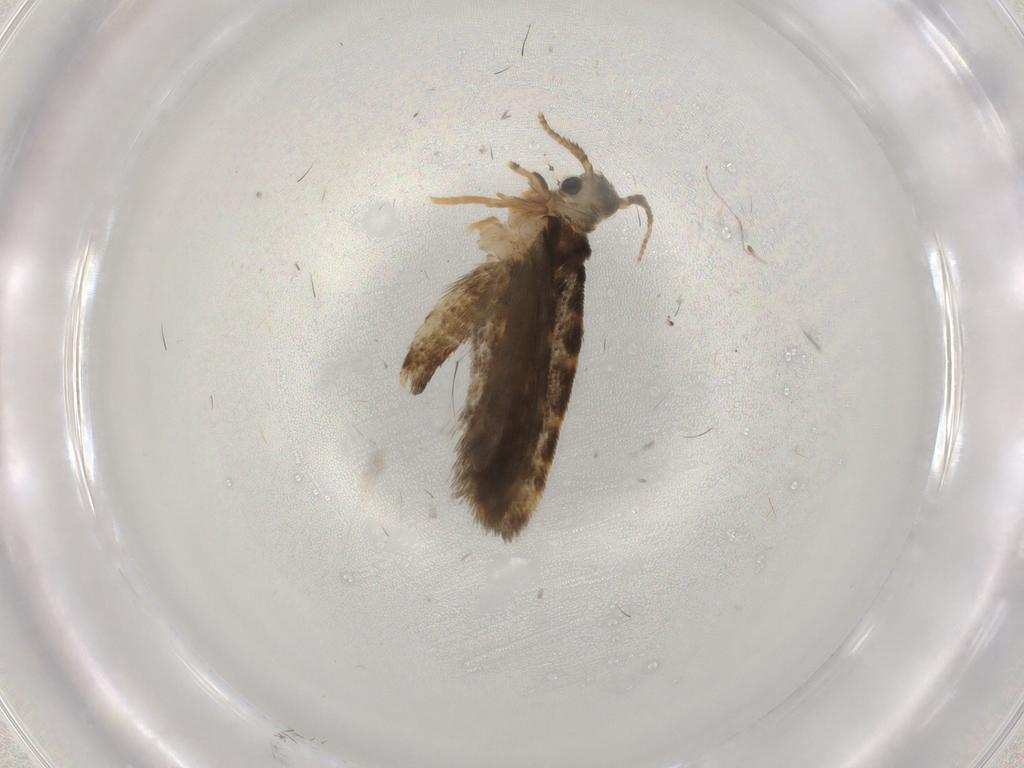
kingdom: Animalia
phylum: Arthropoda
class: Insecta
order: Lepidoptera
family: Psychidae
